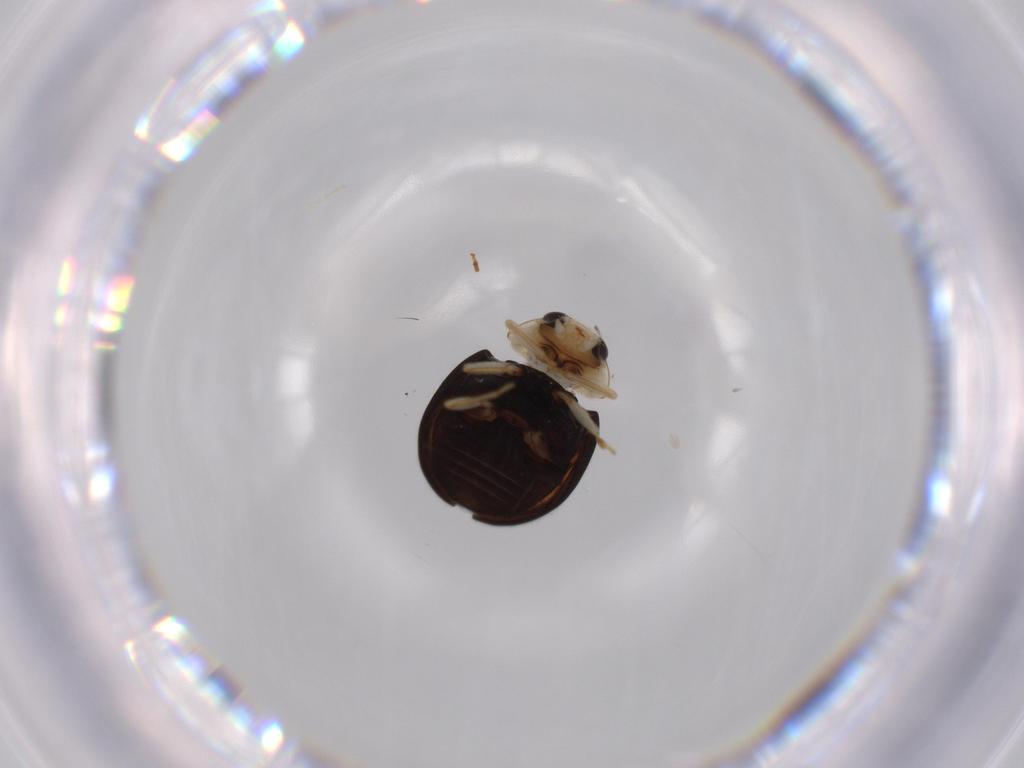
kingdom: Animalia
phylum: Arthropoda
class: Insecta
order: Coleoptera
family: Coccinellidae
